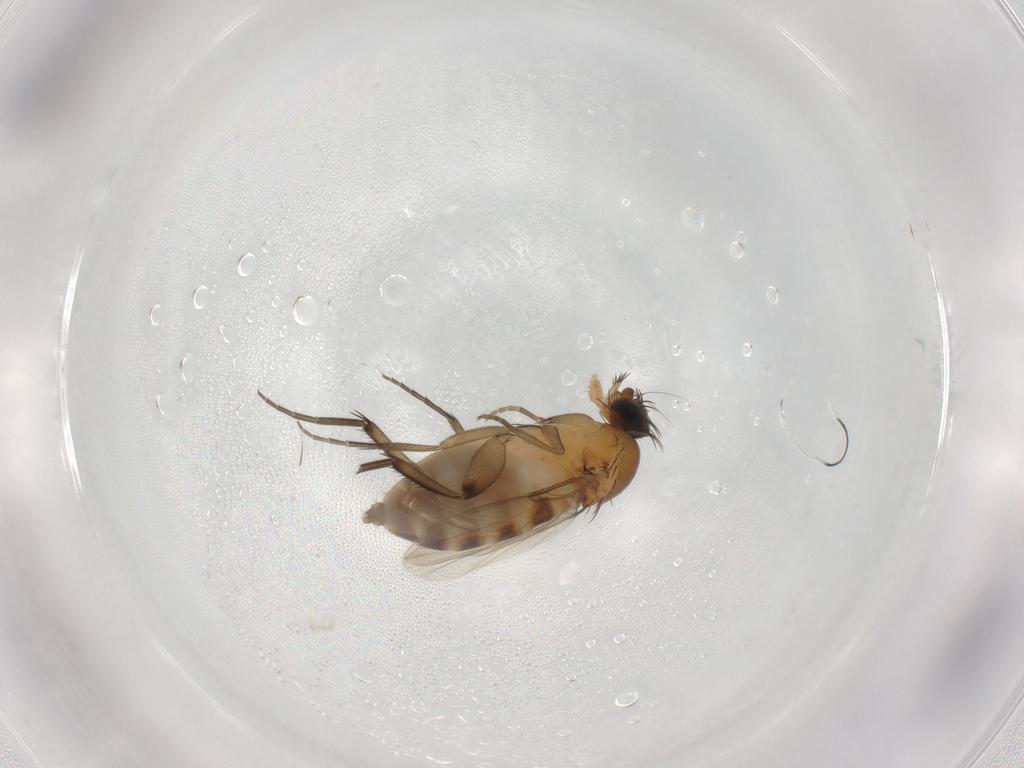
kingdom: Animalia
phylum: Arthropoda
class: Insecta
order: Diptera
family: Phoridae
